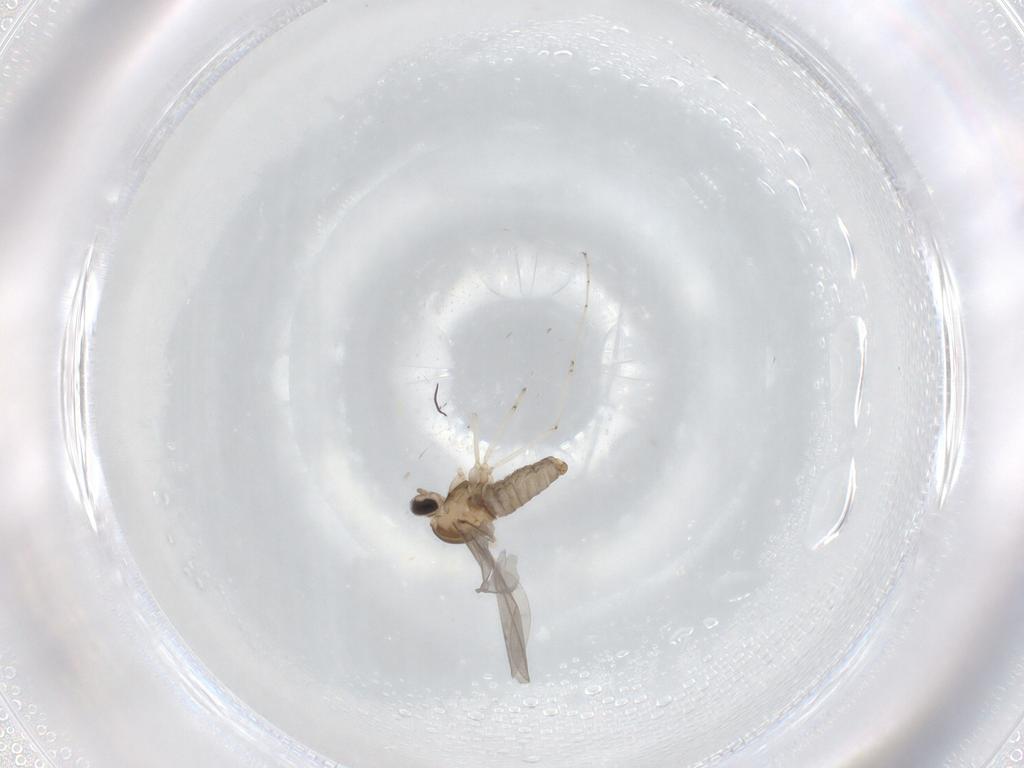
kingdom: Animalia
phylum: Arthropoda
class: Insecta
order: Diptera
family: Cecidomyiidae
